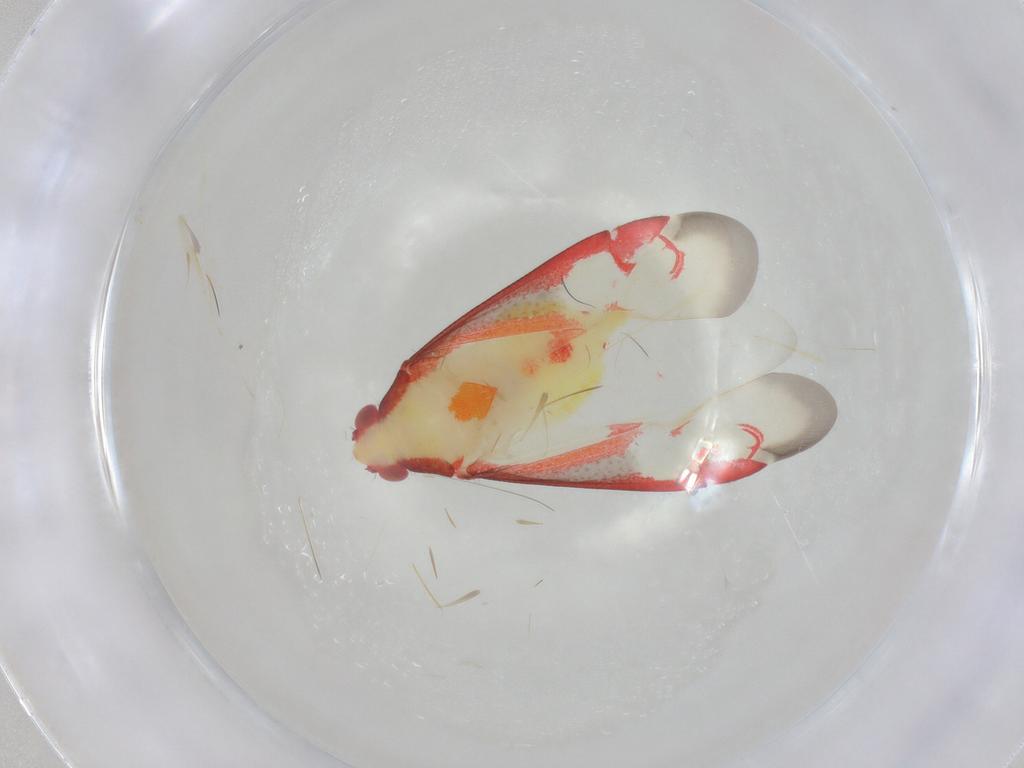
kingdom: Animalia
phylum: Arthropoda
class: Insecta
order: Hemiptera
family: Miridae
